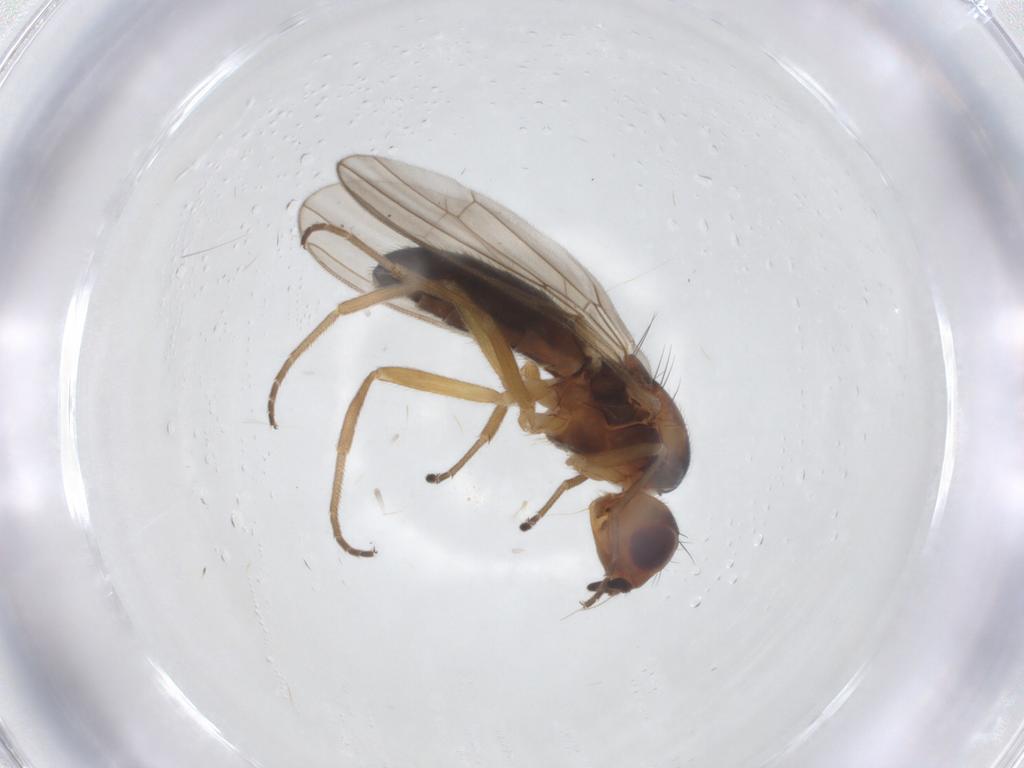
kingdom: Animalia
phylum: Arthropoda
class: Insecta
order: Diptera
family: Psilidae
